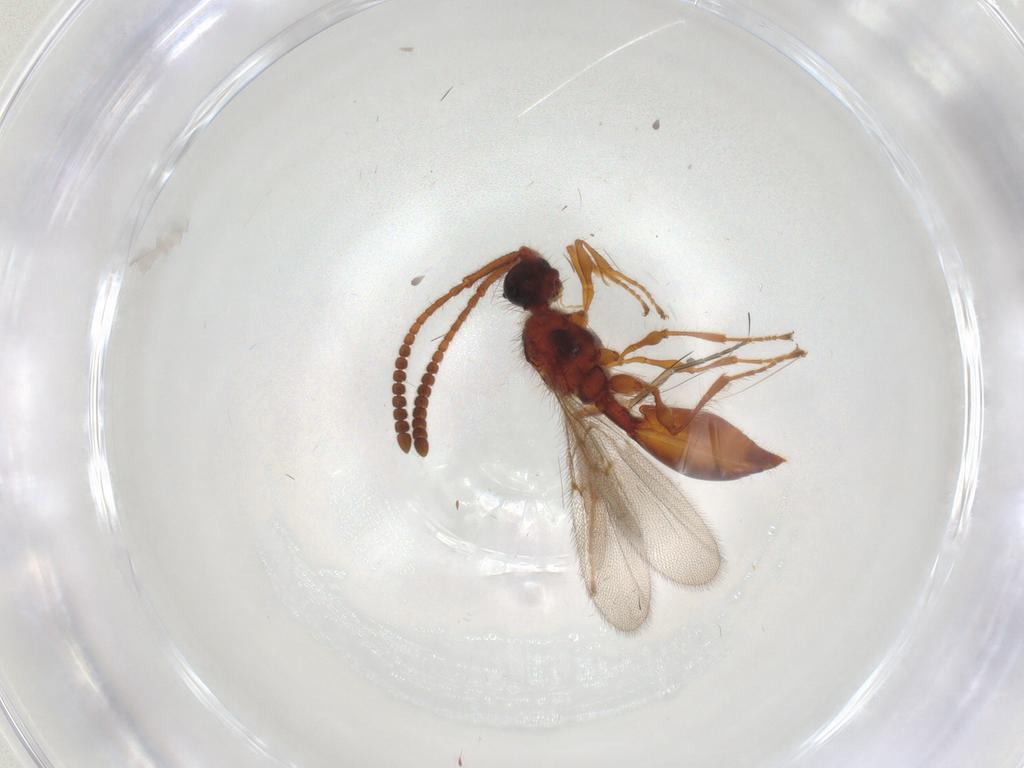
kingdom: Animalia
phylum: Arthropoda
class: Insecta
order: Hymenoptera
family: Diapriidae
